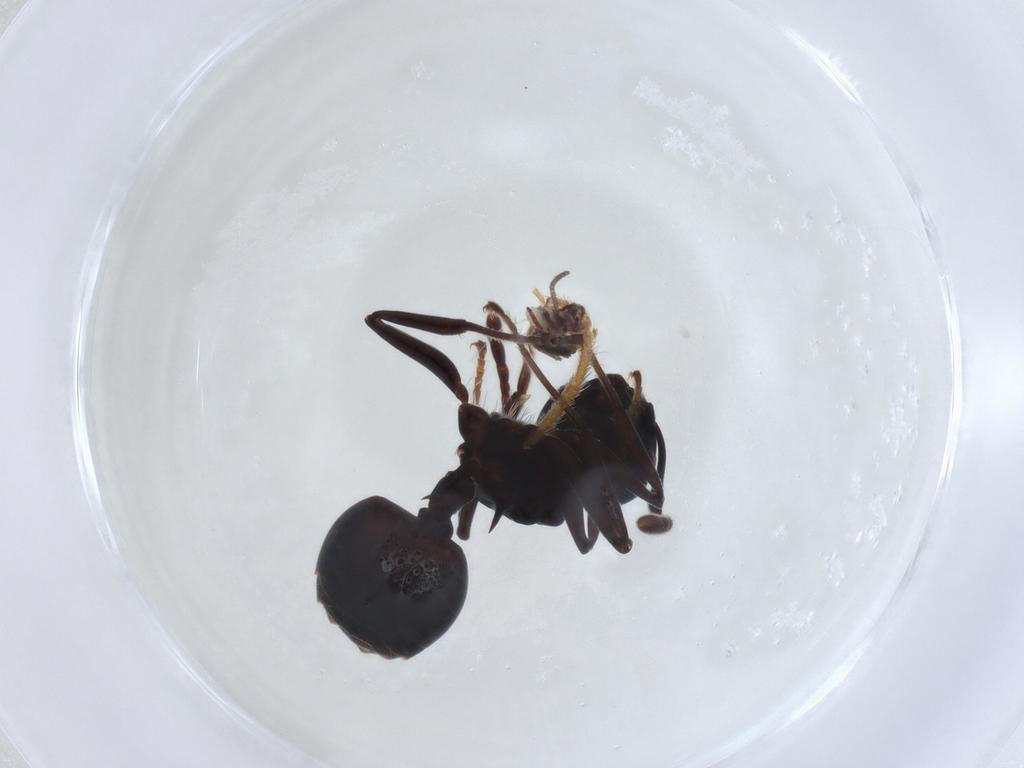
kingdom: Animalia
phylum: Arthropoda
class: Insecta
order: Hymenoptera
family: Formicidae
